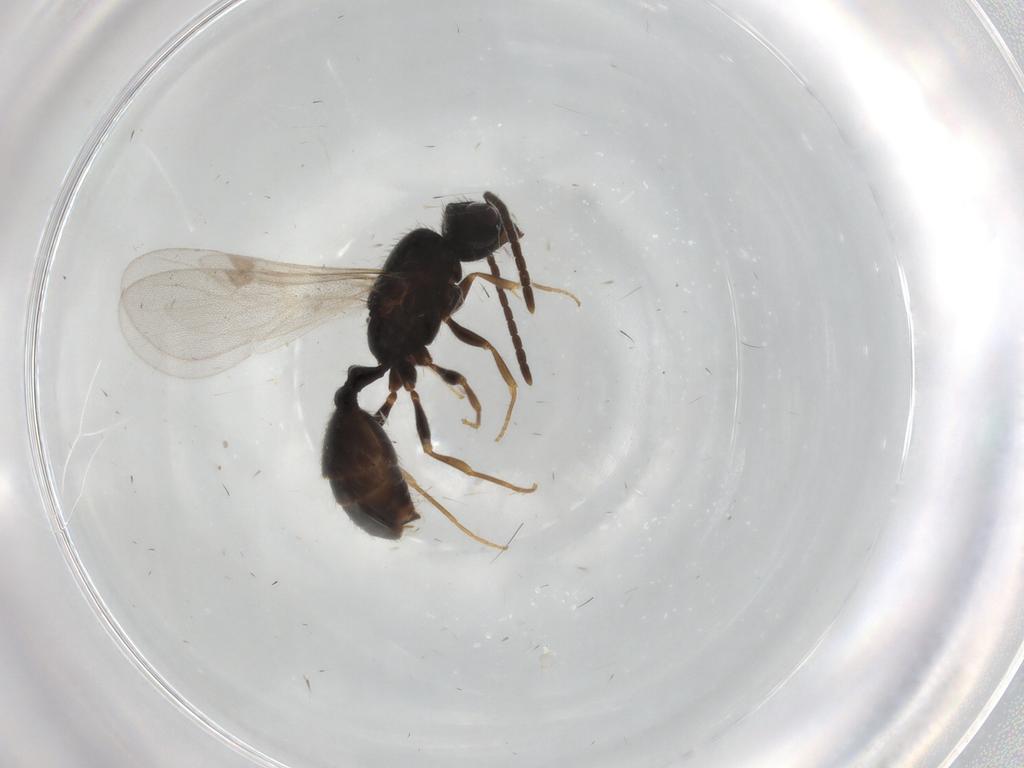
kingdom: Animalia
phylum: Arthropoda
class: Insecta
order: Hymenoptera
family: Formicidae
